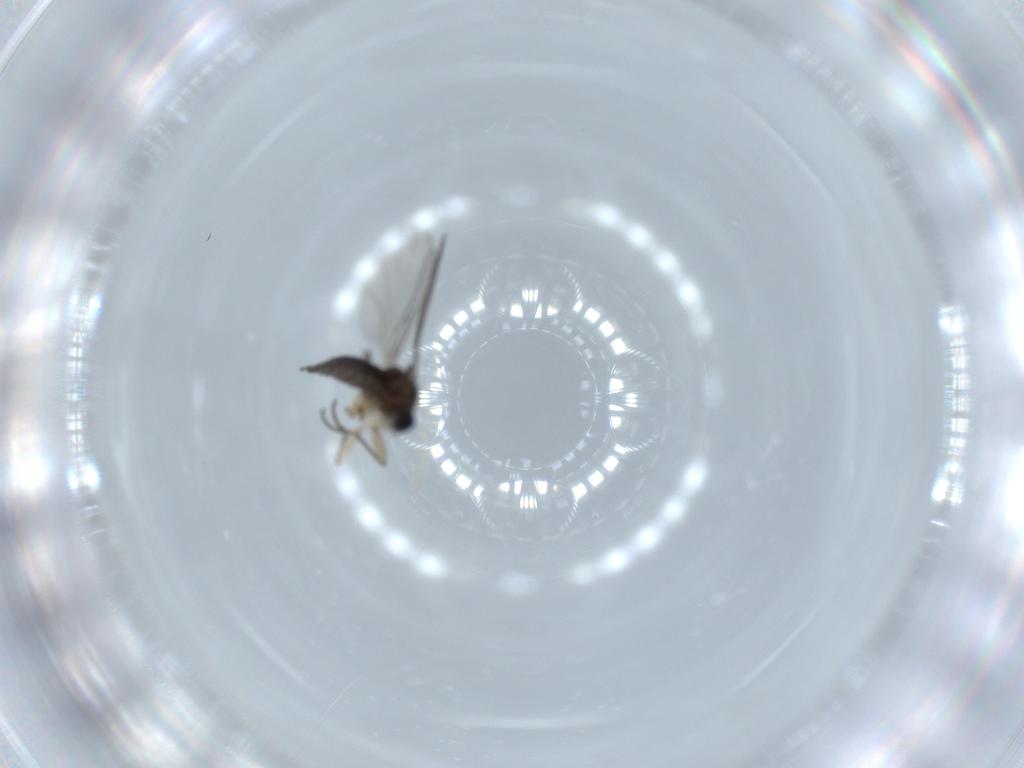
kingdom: Animalia
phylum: Arthropoda
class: Insecta
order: Diptera
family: Sciaridae
